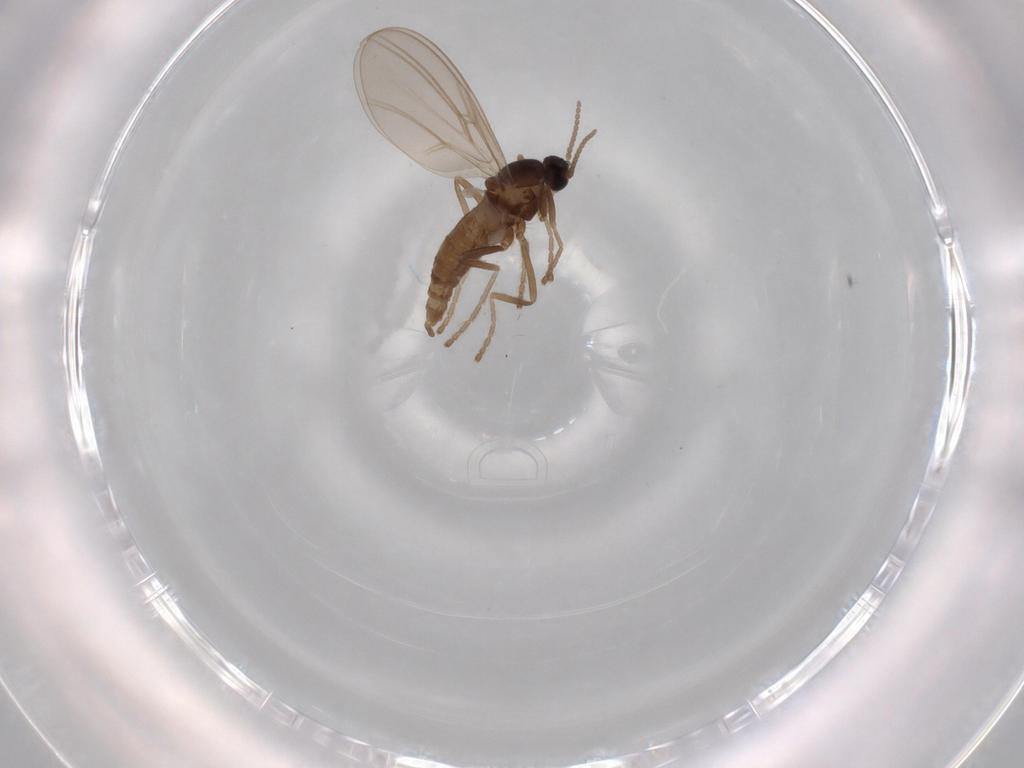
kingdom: Animalia
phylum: Arthropoda
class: Insecta
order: Diptera
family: Cecidomyiidae
